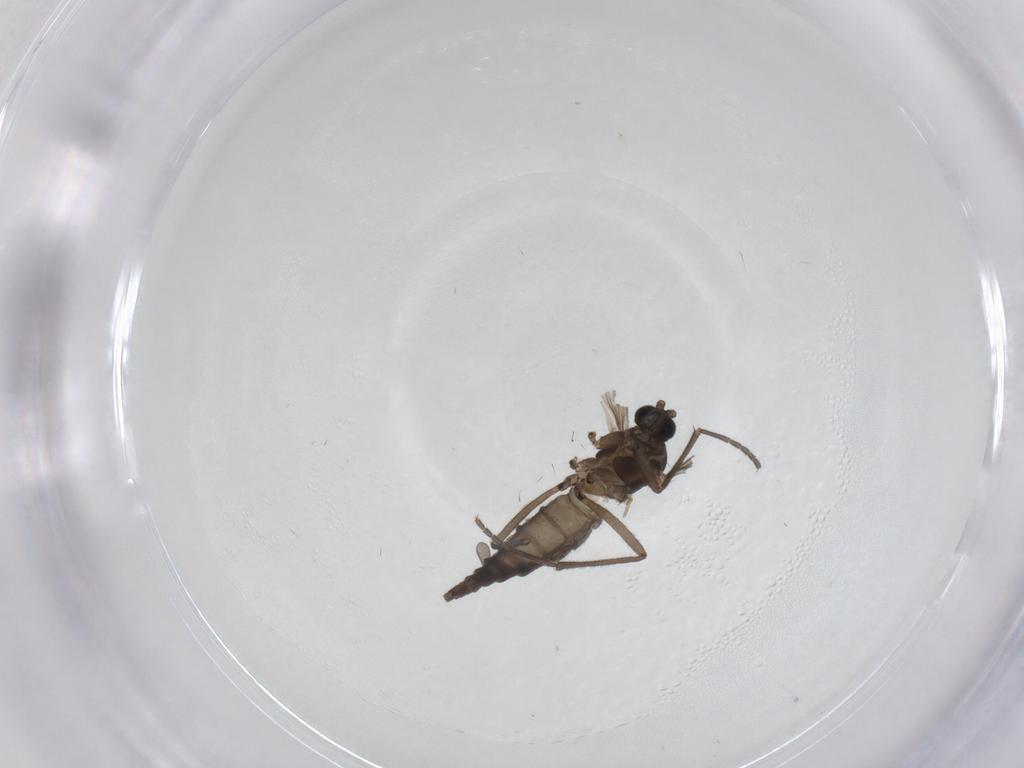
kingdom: Animalia
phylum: Arthropoda
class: Insecta
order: Diptera
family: Sciaridae
